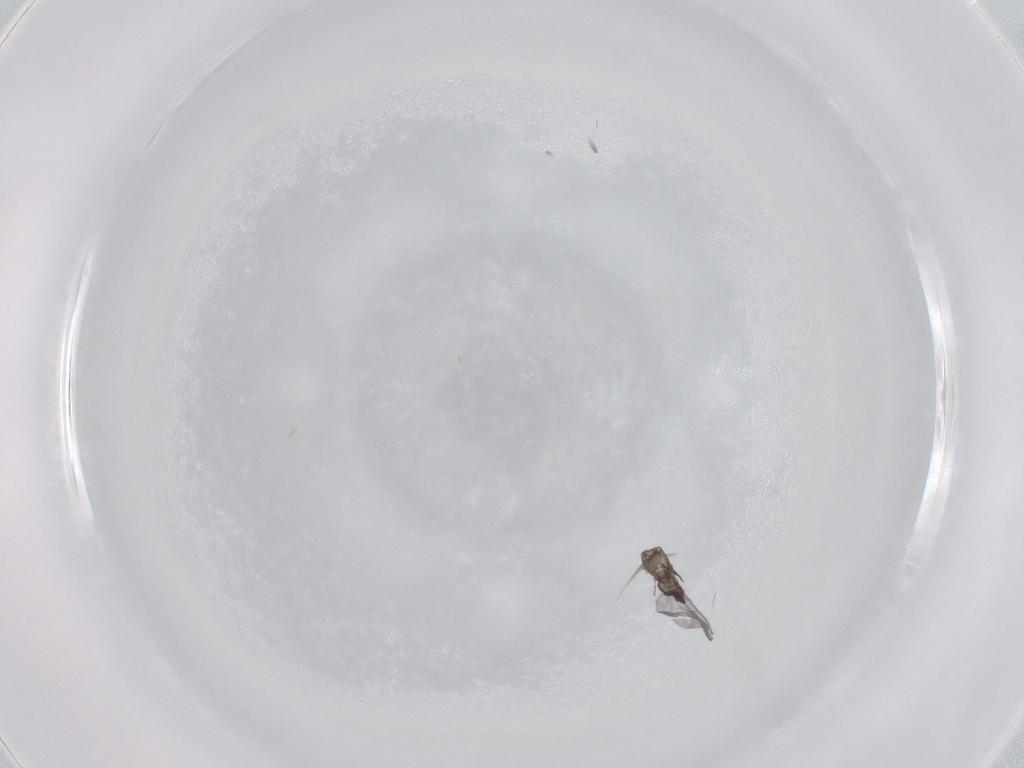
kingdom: Animalia
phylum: Arthropoda
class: Insecta
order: Diptera
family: Sciaridae
